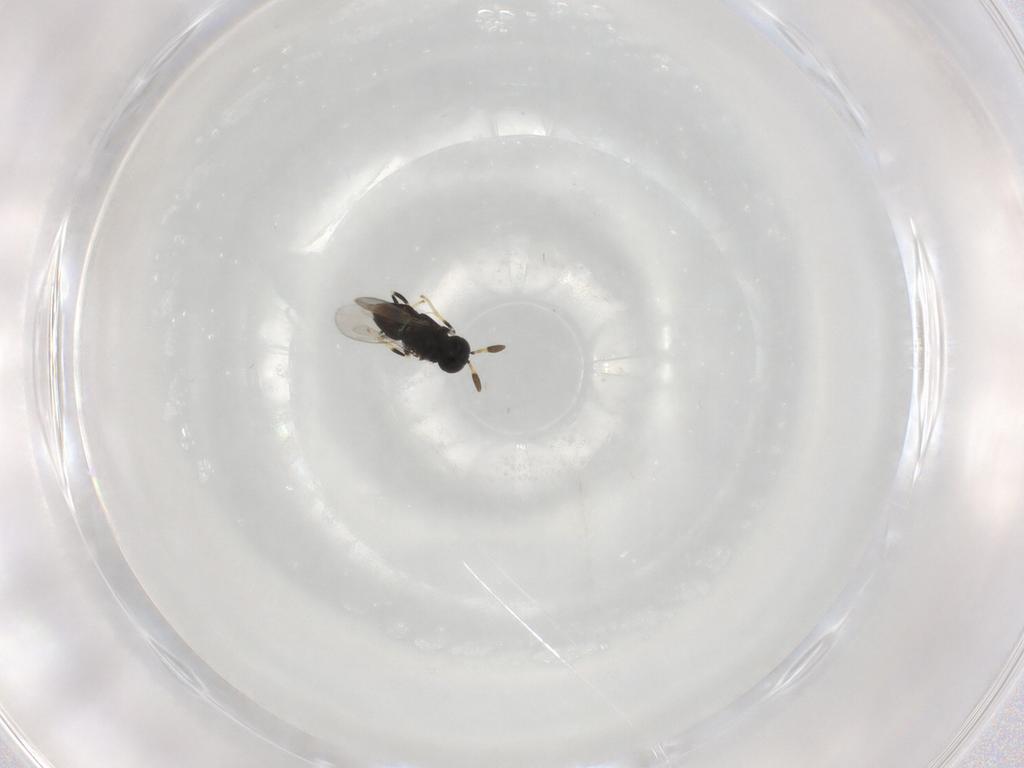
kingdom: Animalia
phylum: Arthropoda
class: Insecta
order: Hymenoptera
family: Encyrtidae
